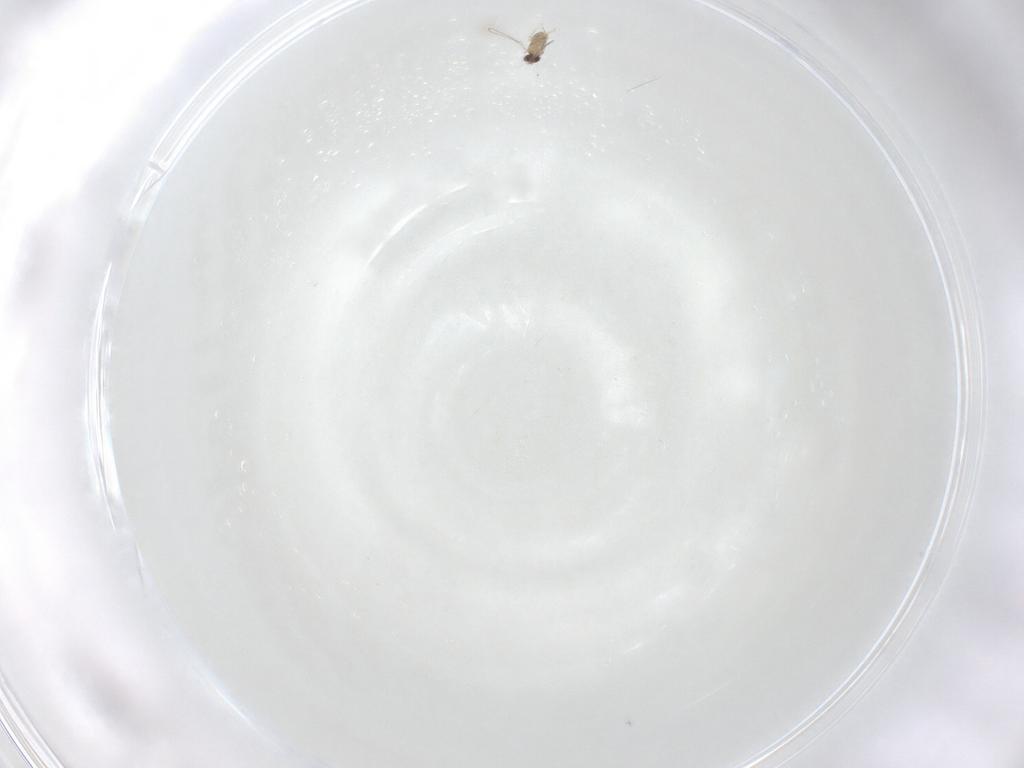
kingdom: Animalia
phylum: Arthropoda
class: Insecta
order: Hymenoptera
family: Mymaridae
